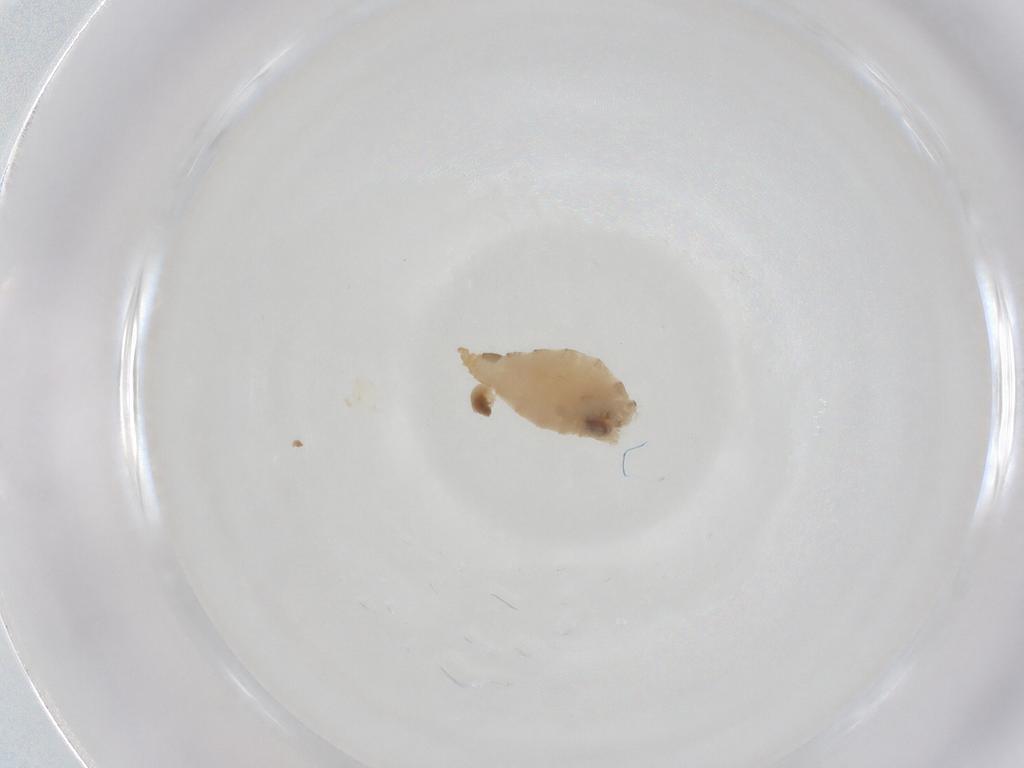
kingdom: Animalia
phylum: Arthropoda
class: Insecta
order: Diptera
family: Cecidomyiidae
